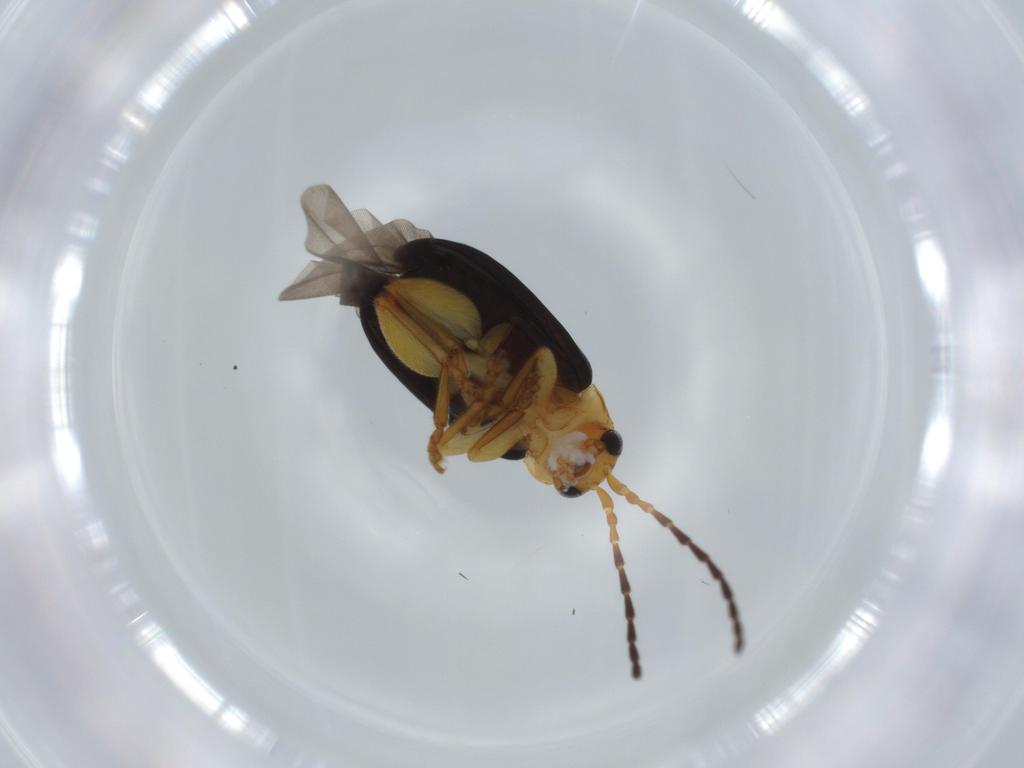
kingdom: Animalia
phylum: Arthropoda
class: Insecta
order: Coleoptera
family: Chrysomelidae
